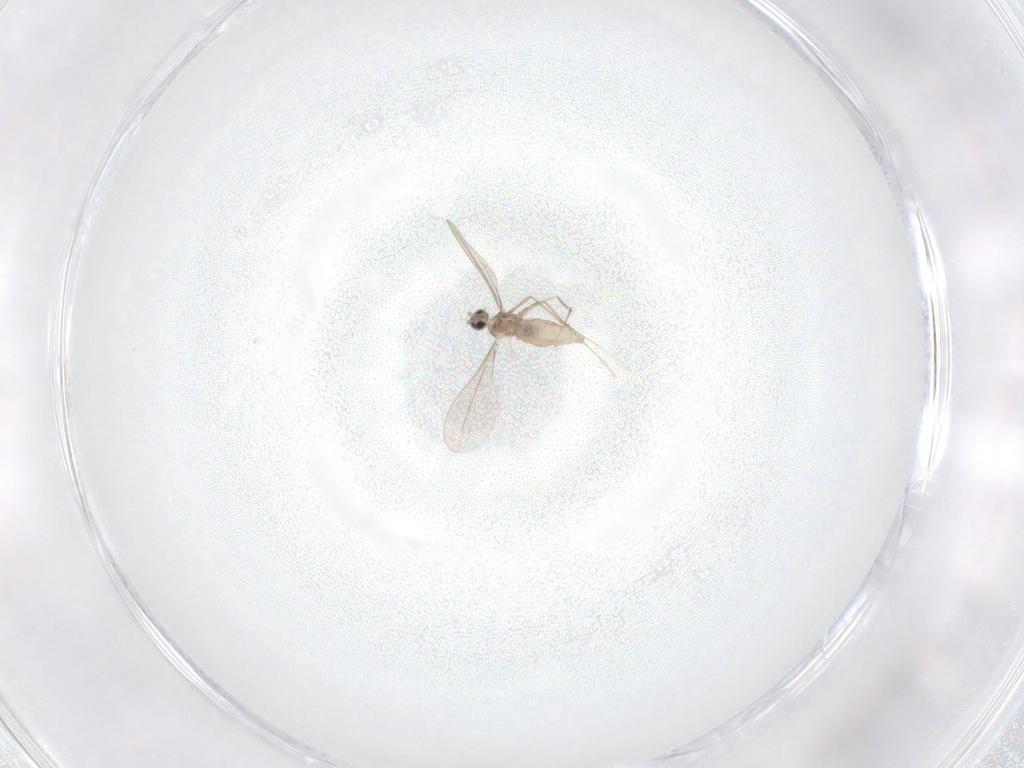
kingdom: Animalia
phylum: Arthropoda
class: Insecta
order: Diptera
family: Cecidomyiidae
